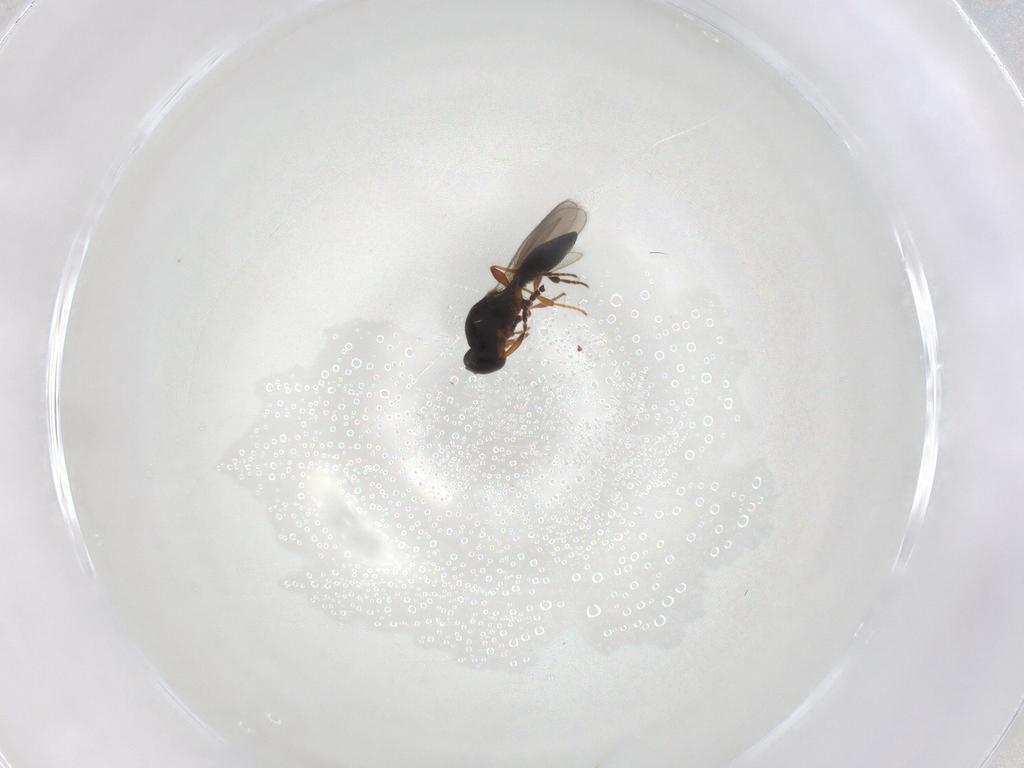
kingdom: Animalia
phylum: Arthropoda
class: Insecta
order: Hymenoptera
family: Platygastridae
